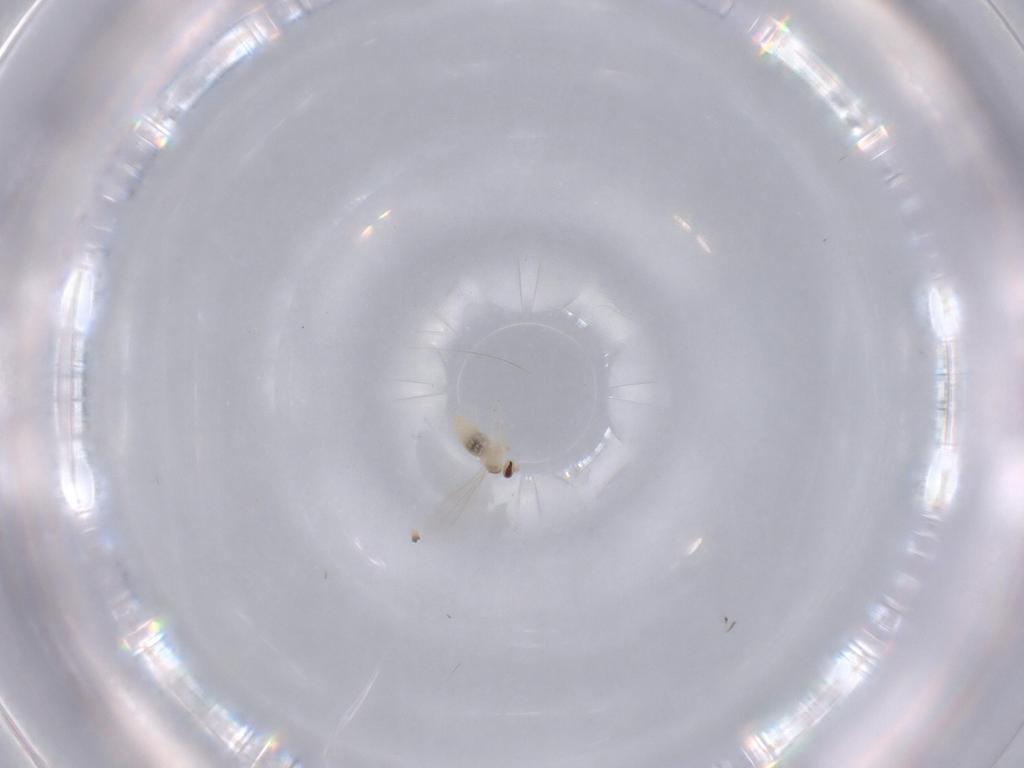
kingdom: Animalia
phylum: Arthropoda
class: Insecta
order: Diptera
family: Cecidomyiidae
